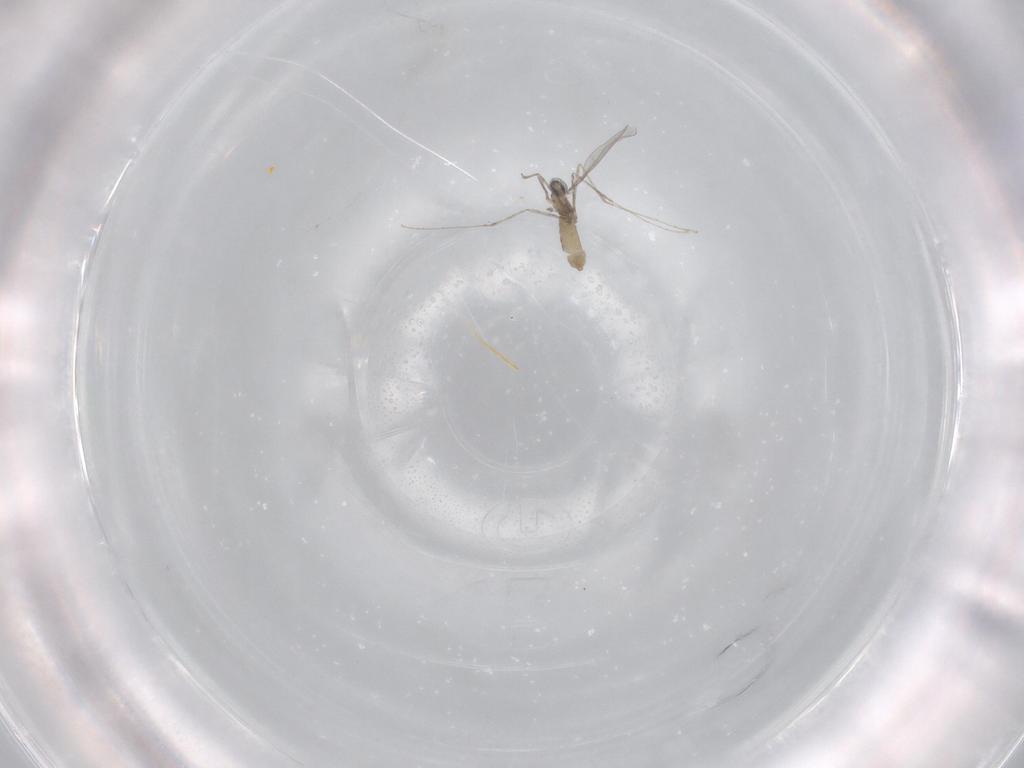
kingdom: Animalia
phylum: Arthropoda
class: Insecta
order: Diptera
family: Cecidomyiidae
